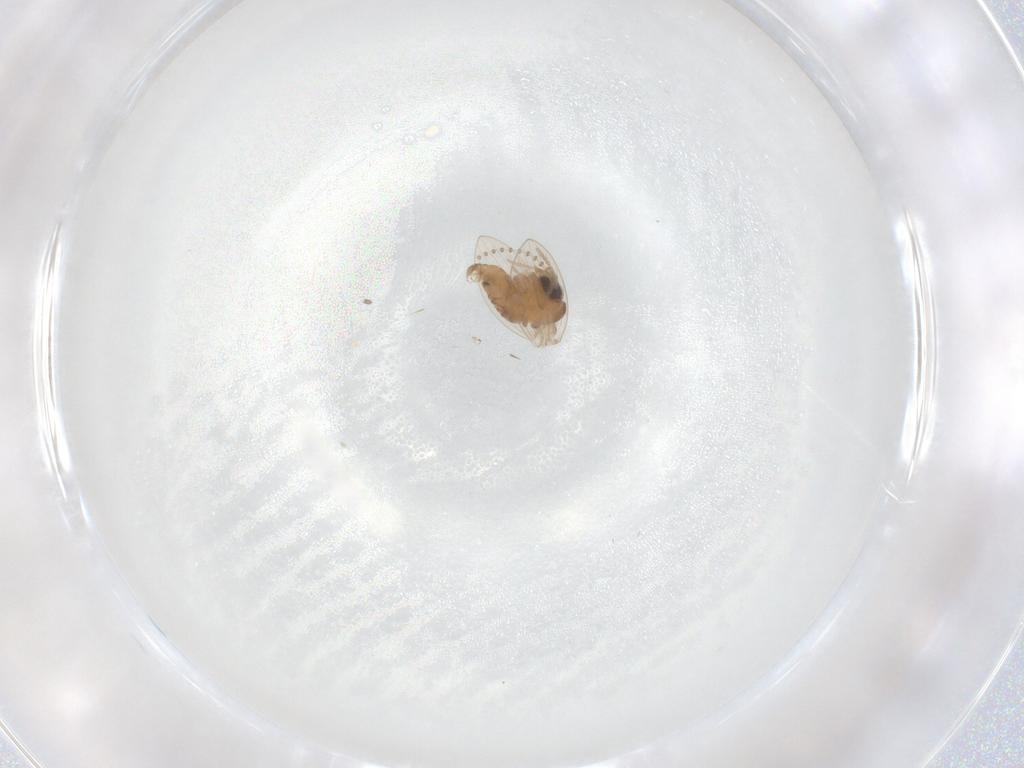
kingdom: Animalia
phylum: Arthropoda
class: Insecta
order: Diptera
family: Psychodidae
